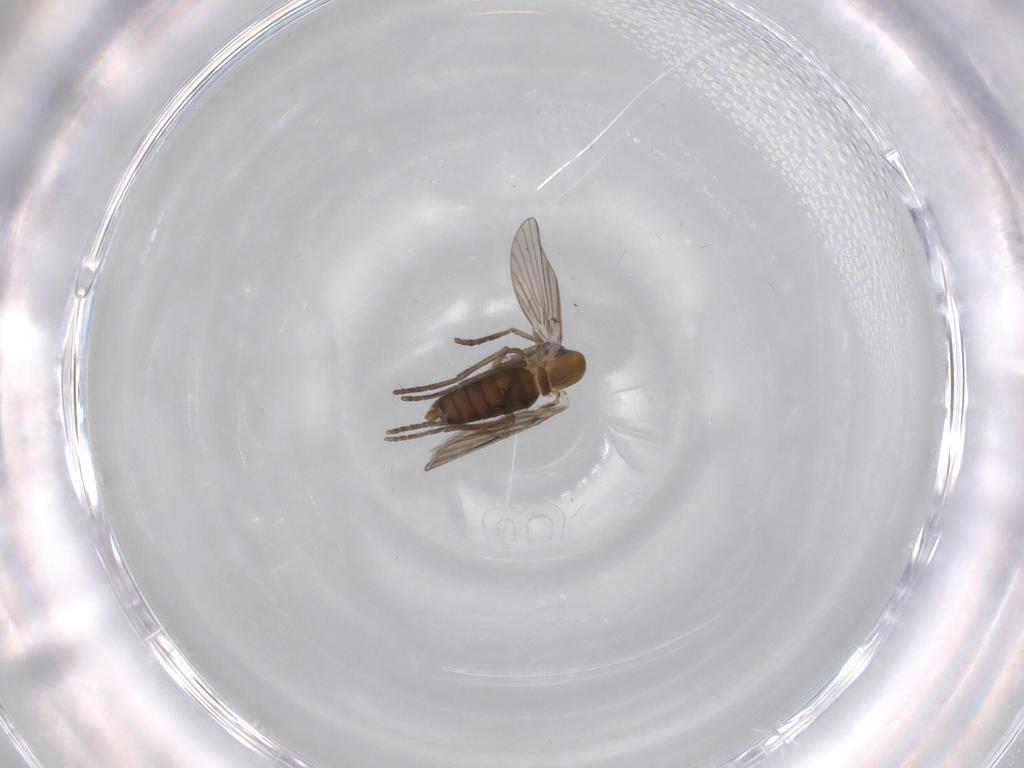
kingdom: Animalia
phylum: Arthropoda
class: Insecta
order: Diptera
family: Psychodidae
